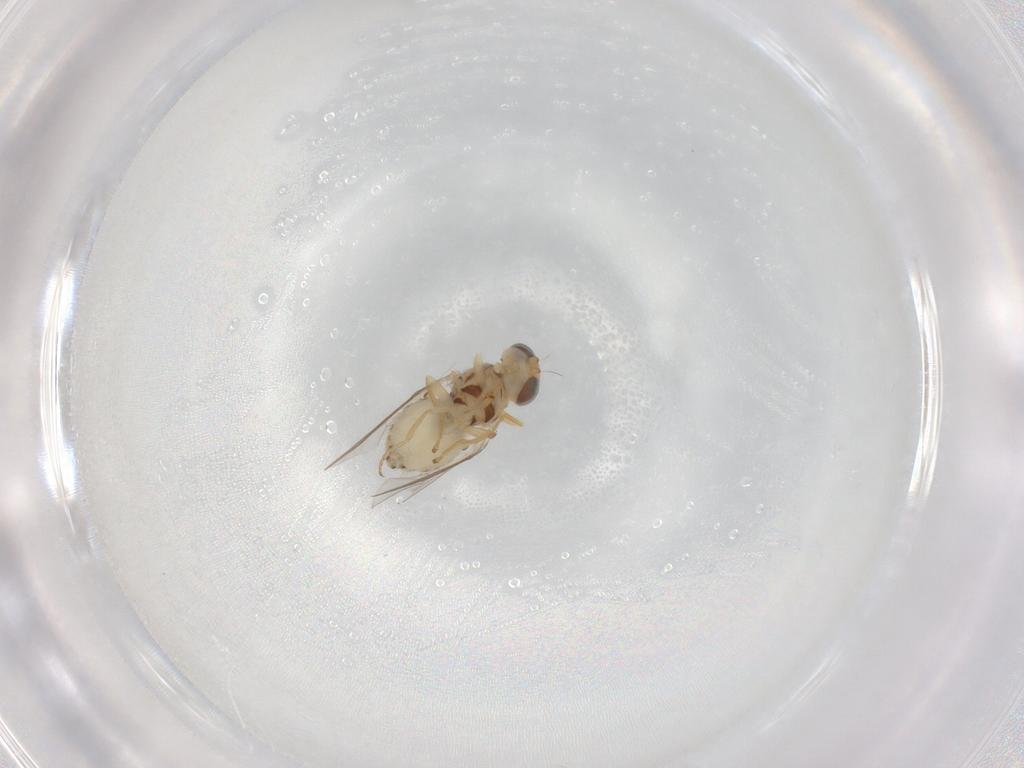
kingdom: Animalia
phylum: Arthropoda
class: Insecta
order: Diptera
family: Chyromyidae
